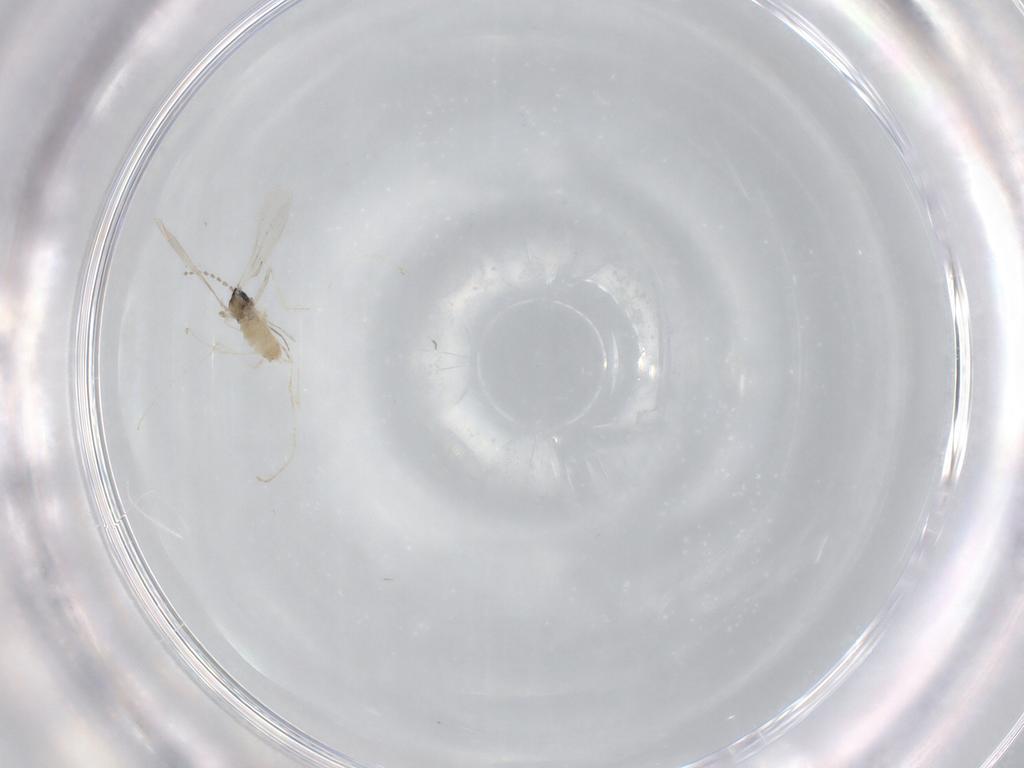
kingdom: Animalia
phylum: Arthropoda
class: Insecta
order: Diptera
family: Cecidomyiidae
